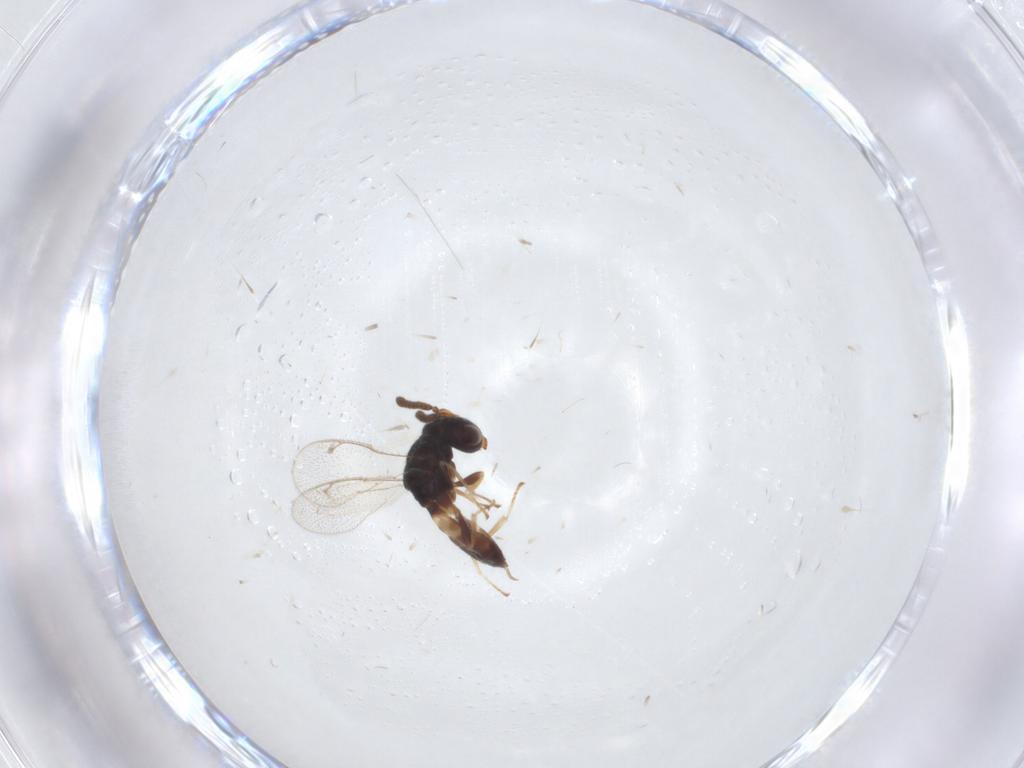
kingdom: Animalia
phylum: Arthropoda
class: Insecta
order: Hymenoptera
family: Eulophidae
